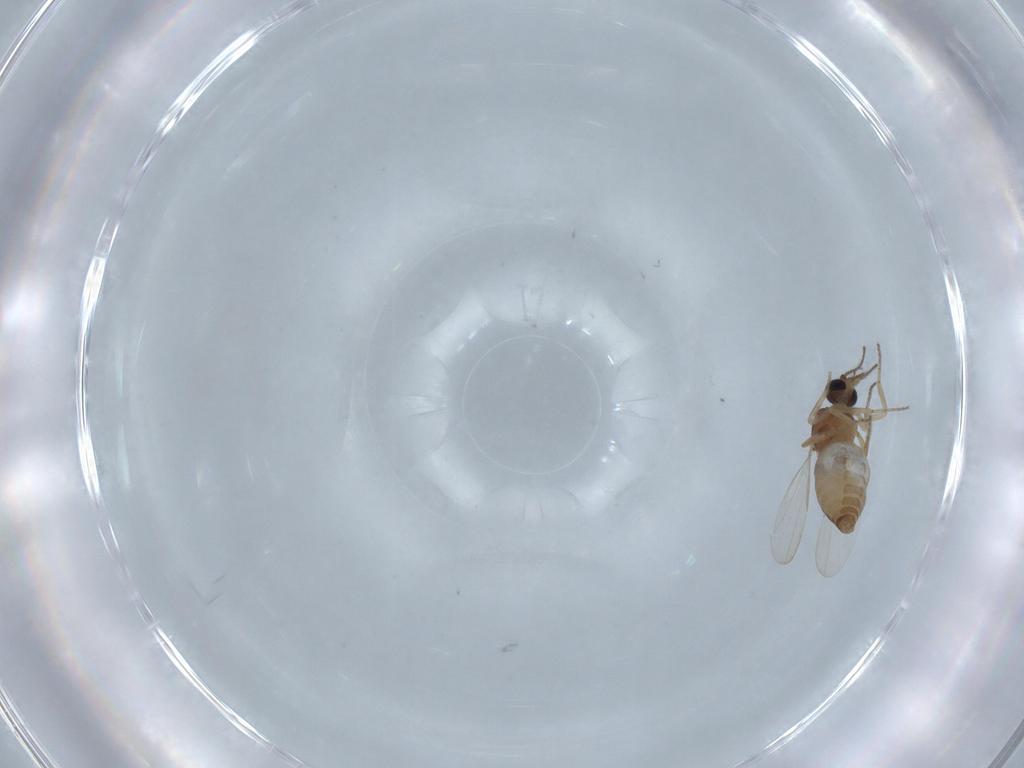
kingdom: Animalia
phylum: Arthropoda
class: Insecta
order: Diptera
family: Ceratopogonidae
